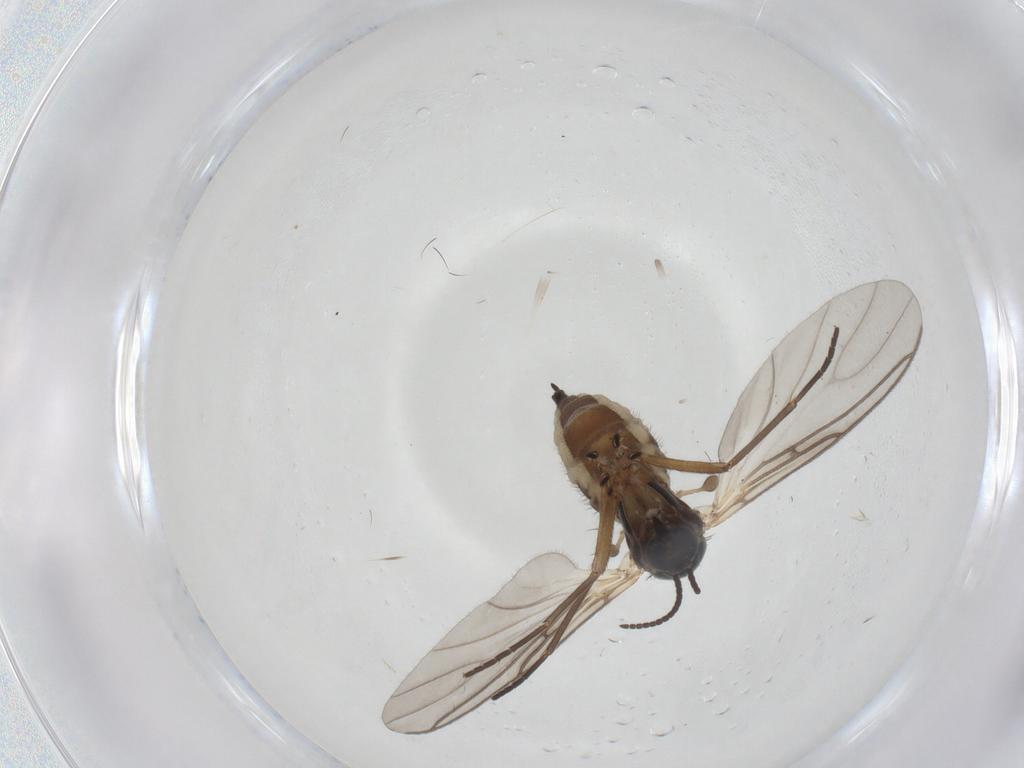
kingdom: Animalia
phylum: Arthropoda
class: Insecta
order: Diptera
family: Sciaridae
